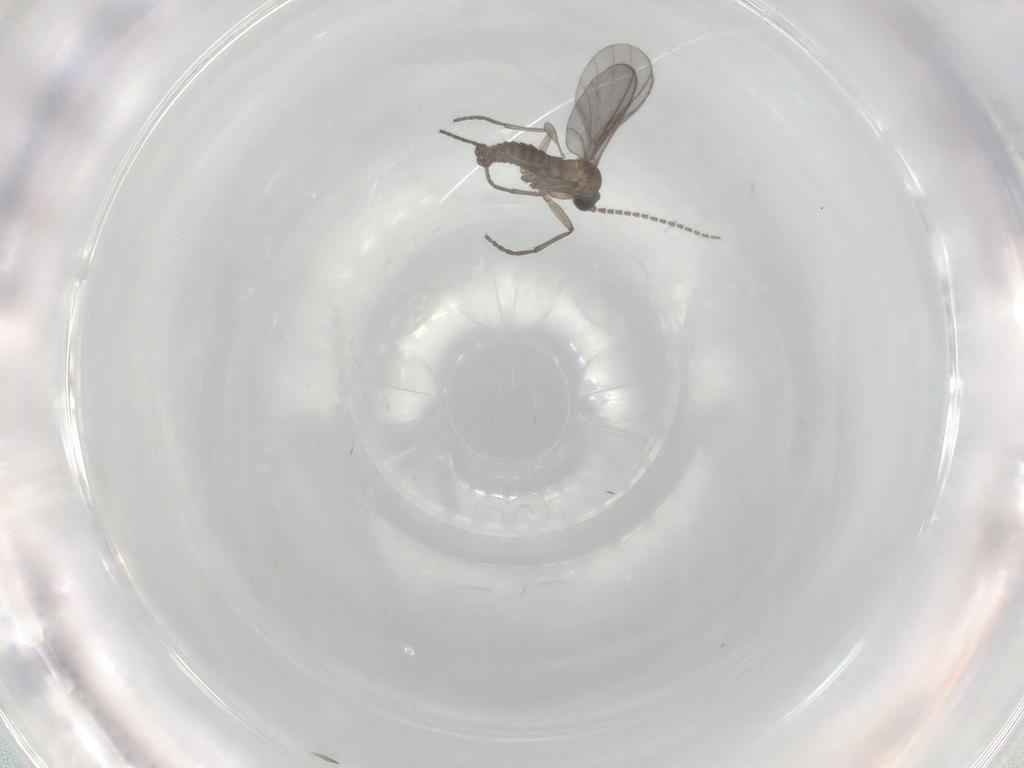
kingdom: Animalia
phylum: Arthropoda
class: Insecta
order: Diptera
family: Sciaridae
